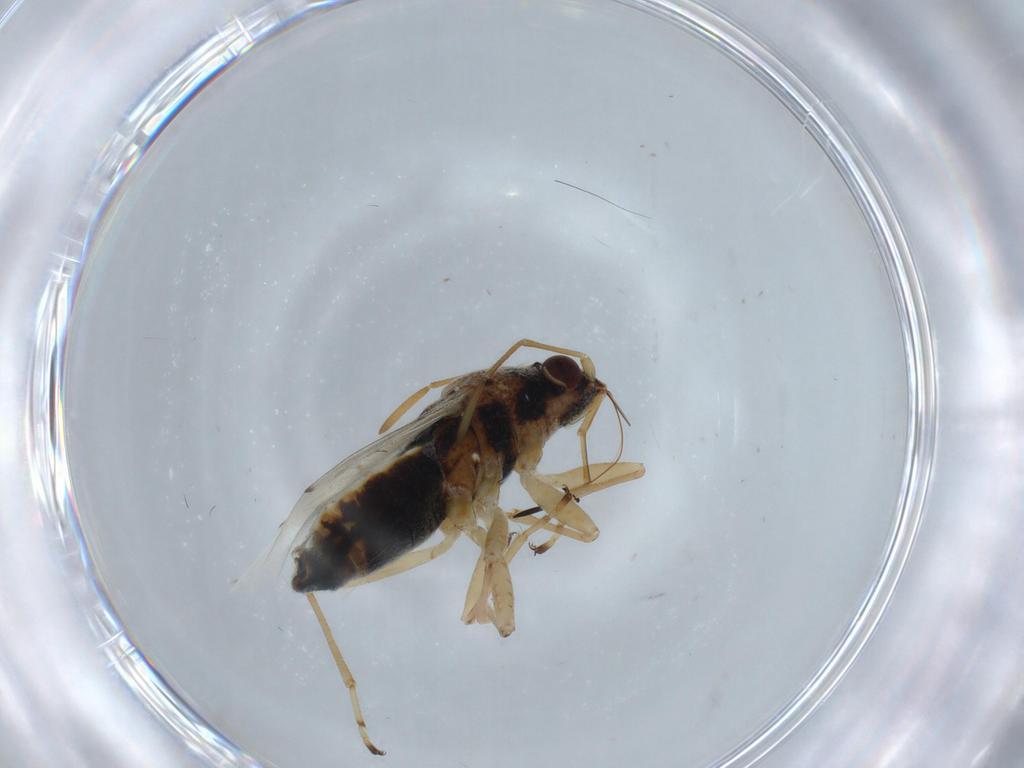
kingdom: Animalia
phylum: Arthropoda
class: Insecta
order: Hemiptera
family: Lygaeidae
